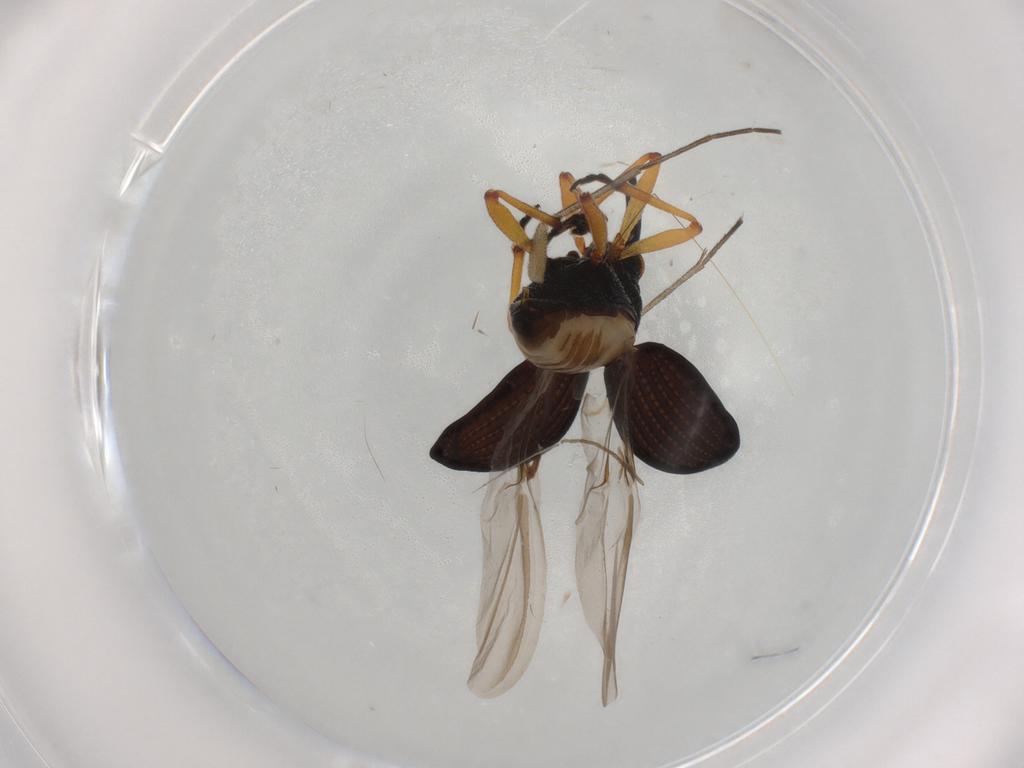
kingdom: Animalia
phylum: Arthropoda
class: Insecta
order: Coleoptera
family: Brentidae
